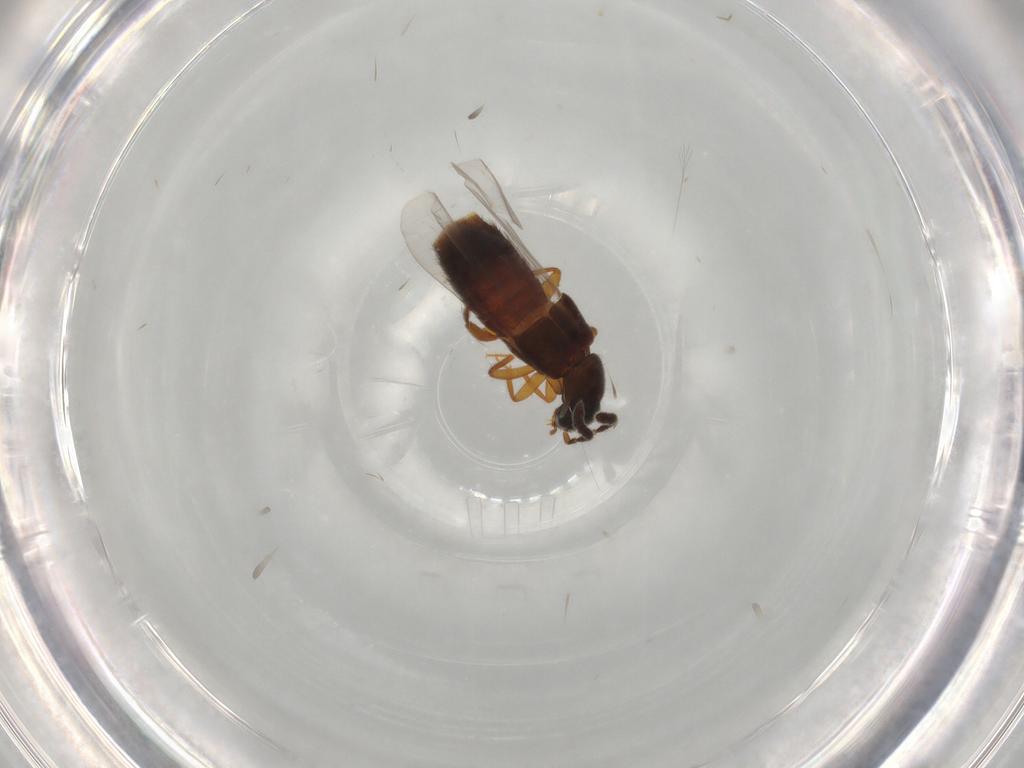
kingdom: Animalia
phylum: Arthropoda
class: Insecta
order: Coleoptera
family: Staphylinidae
